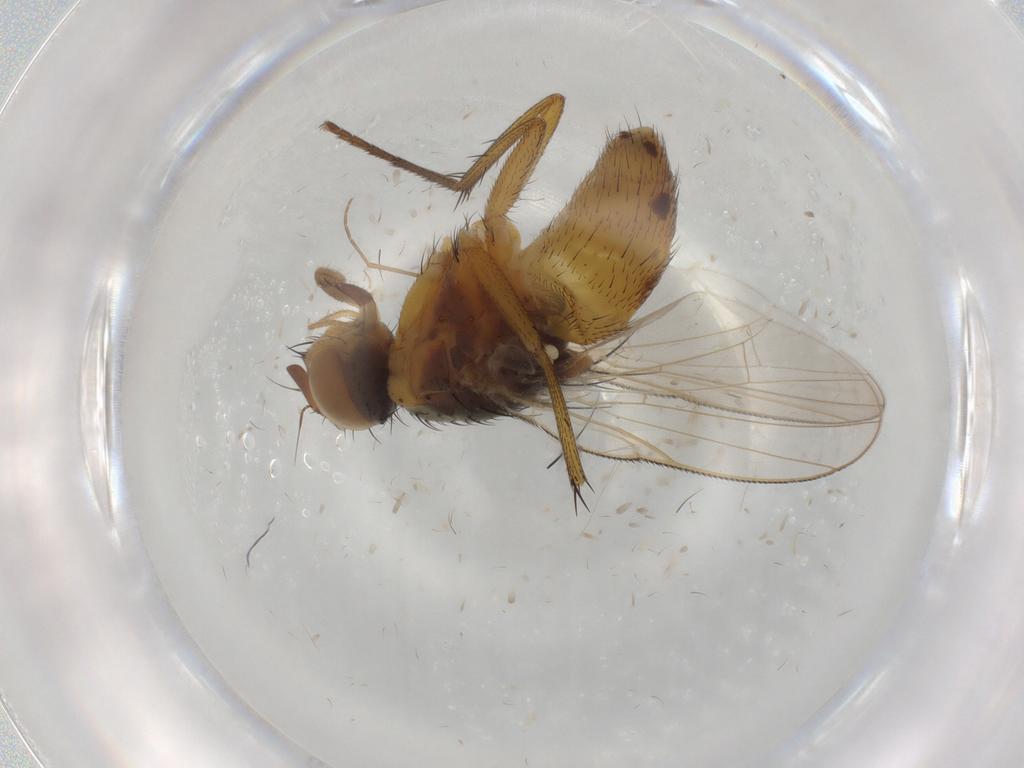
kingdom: Animalia
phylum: Arthropoda
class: Insecta
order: Diptera
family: Muscidae
